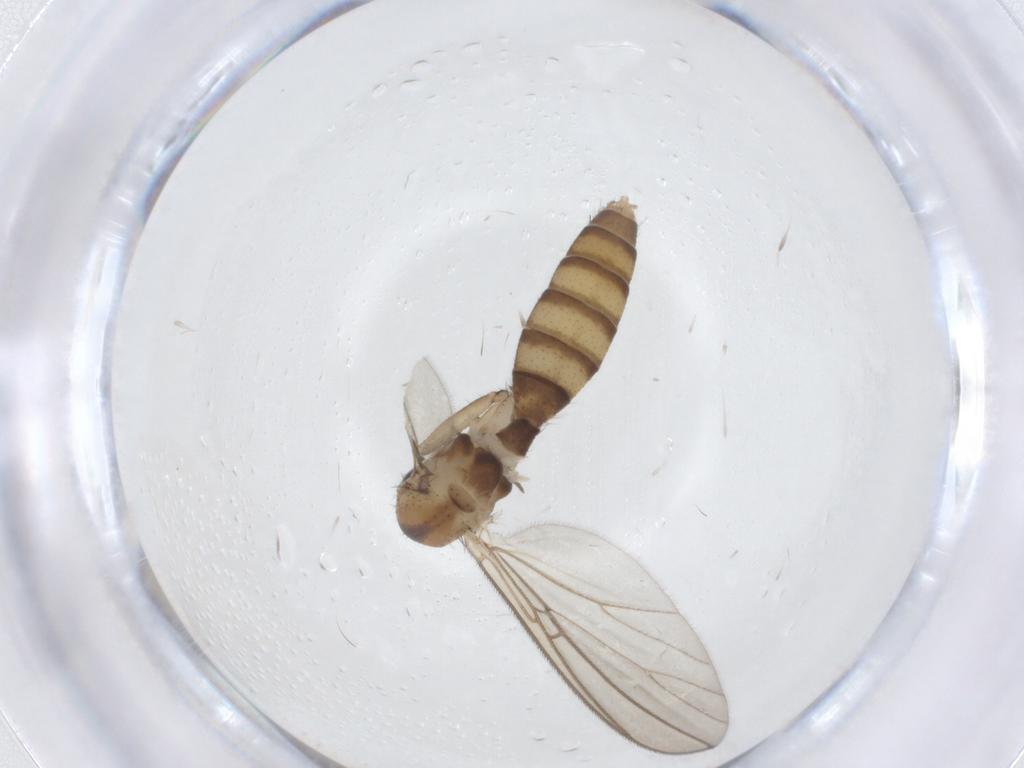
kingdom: Animalia
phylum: Arthropoda
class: Insecta
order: Diptera
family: Mycetophilidae
